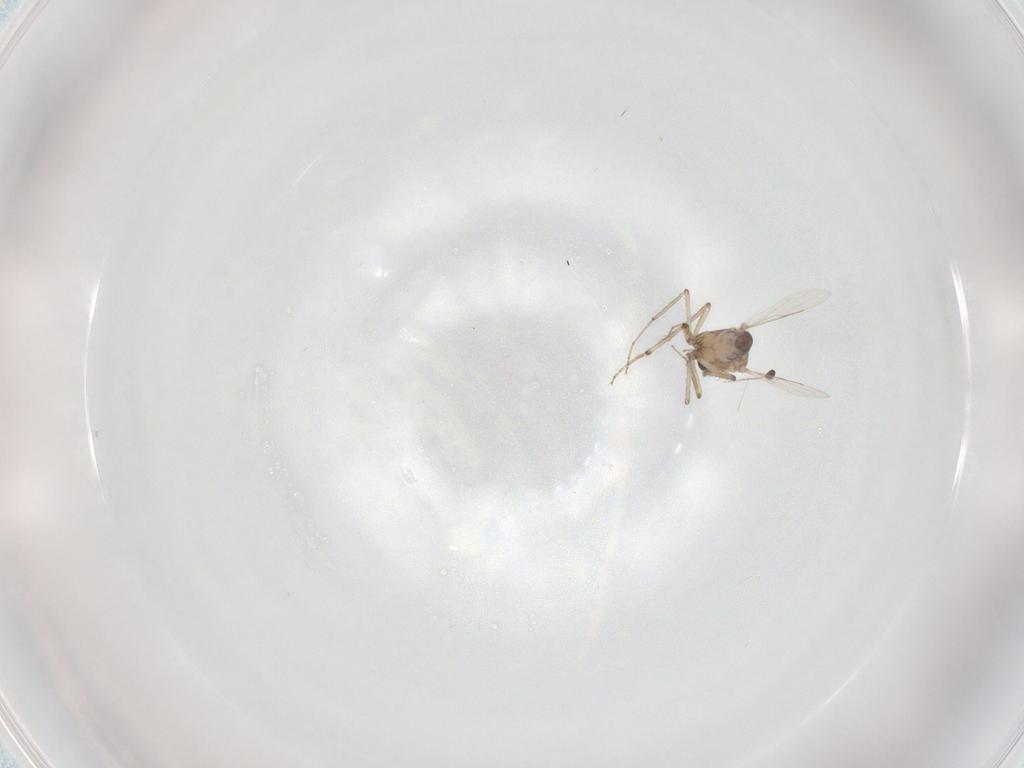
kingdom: Animalia
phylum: Arthropoda
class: Insecta
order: Diptera
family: Ceratopogonidae
